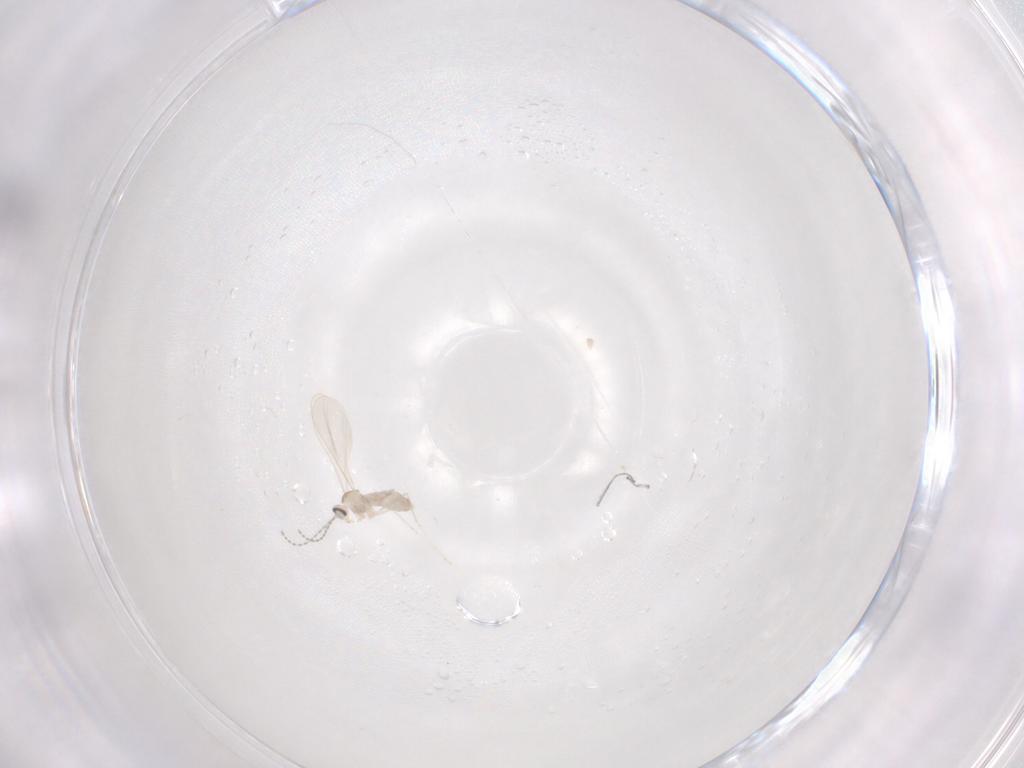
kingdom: Animalia
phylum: Arthropoda
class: Insecta
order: Diptera
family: Cecidomyiidae
